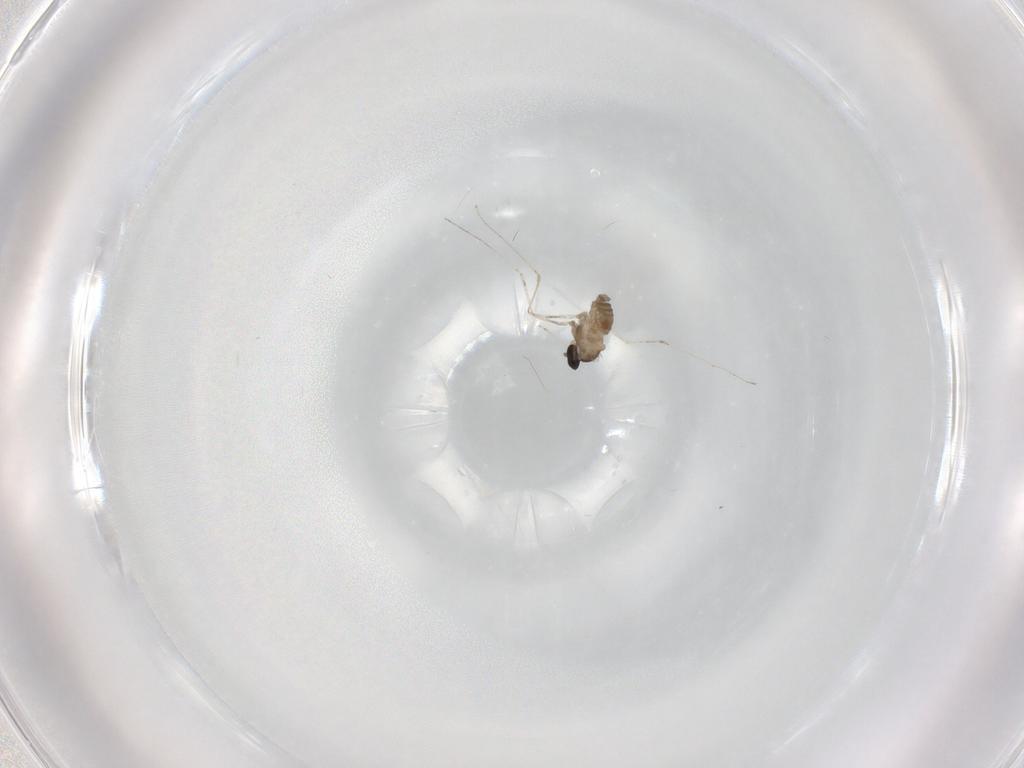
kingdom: Animalia
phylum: Arthropoda
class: Insecta
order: Diptera
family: Cecidomyiidae
